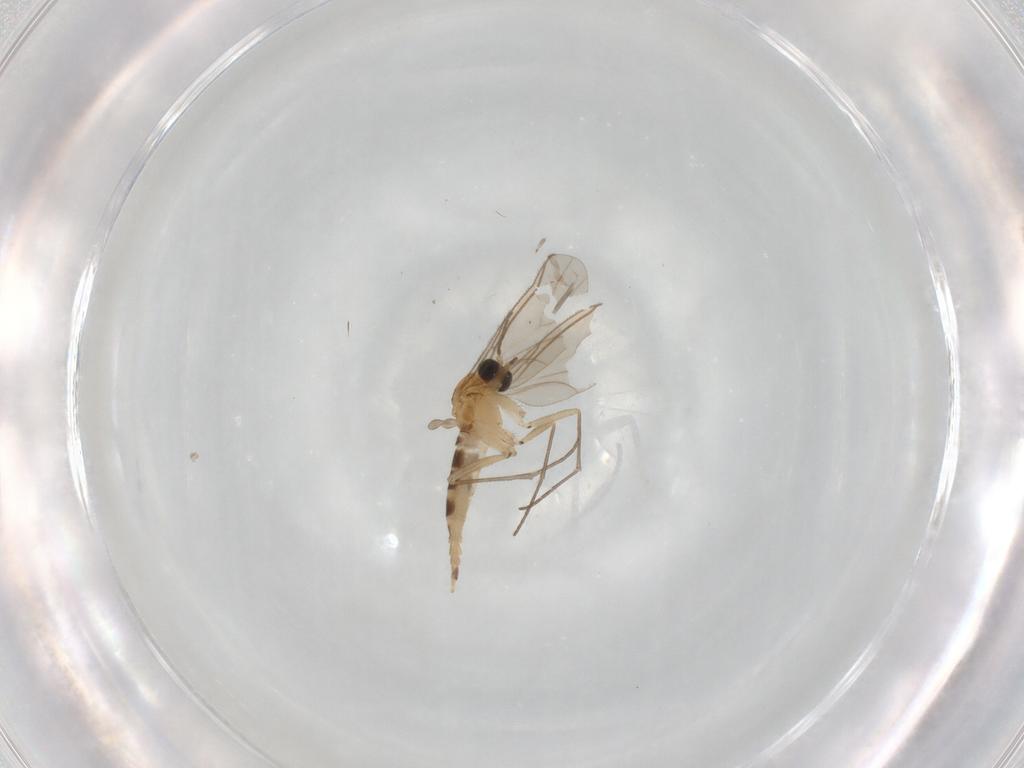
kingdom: Animalia
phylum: Arthropoda
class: Insecta
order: Diptera
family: Sciaridae
